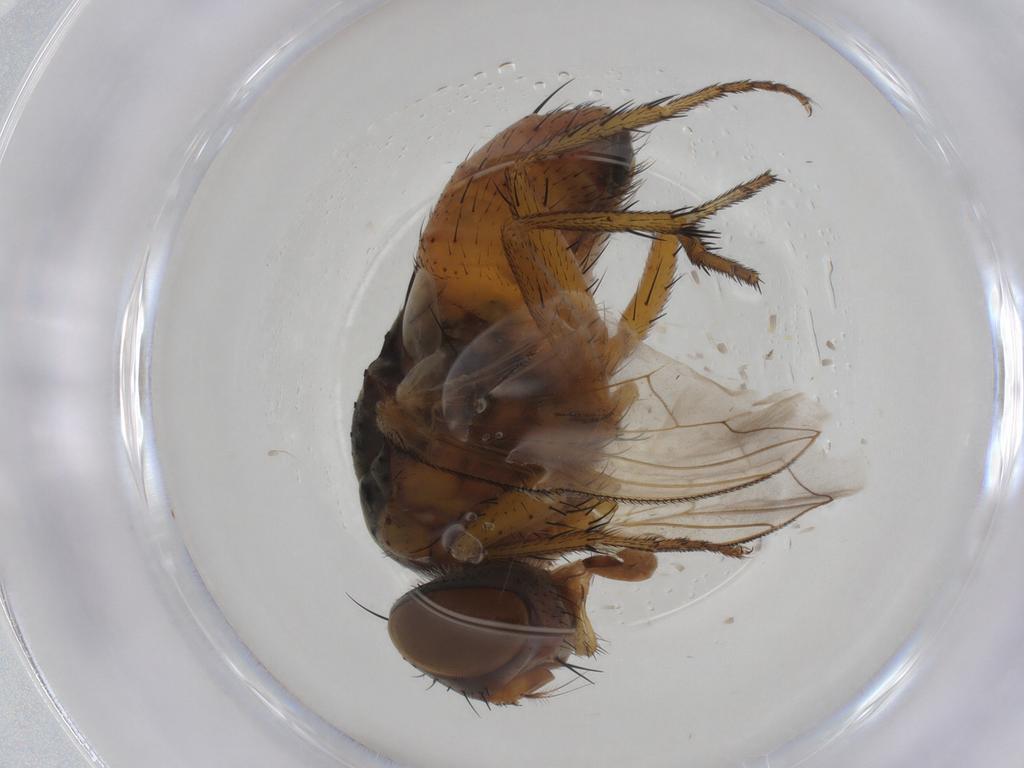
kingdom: Animalia
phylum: Arthropoda
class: Insecta
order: Diptera
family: Sarcophagidae
